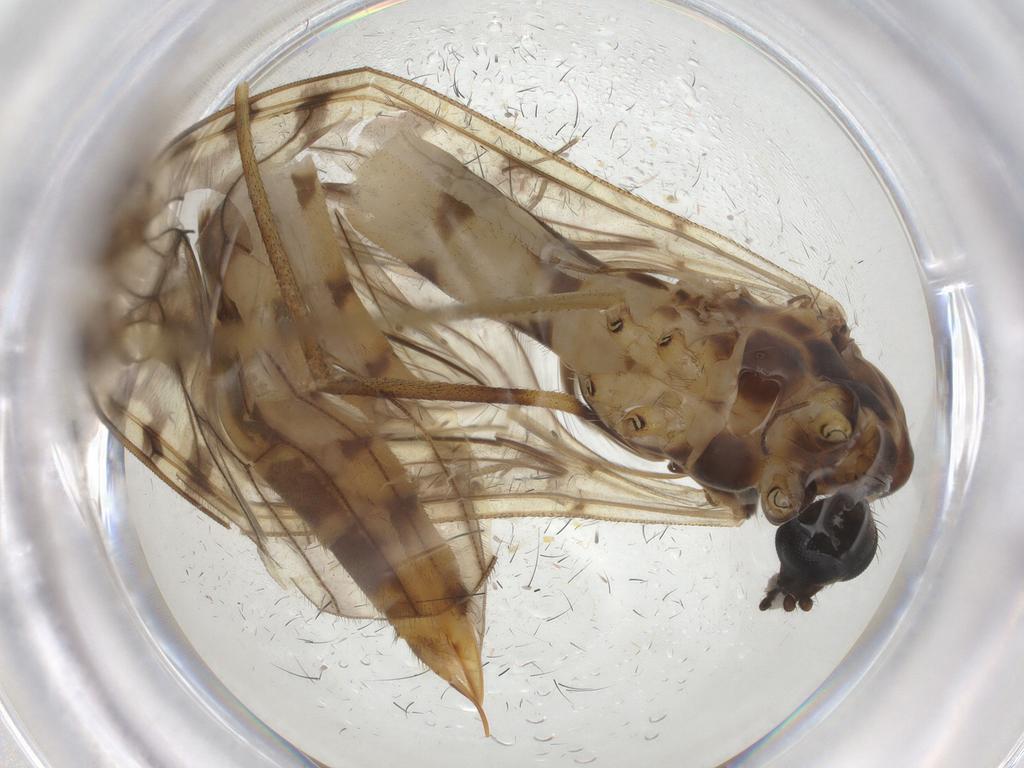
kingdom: Animalia
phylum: Arthropoda
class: Insecta
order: Diptera
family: Limoniidae
